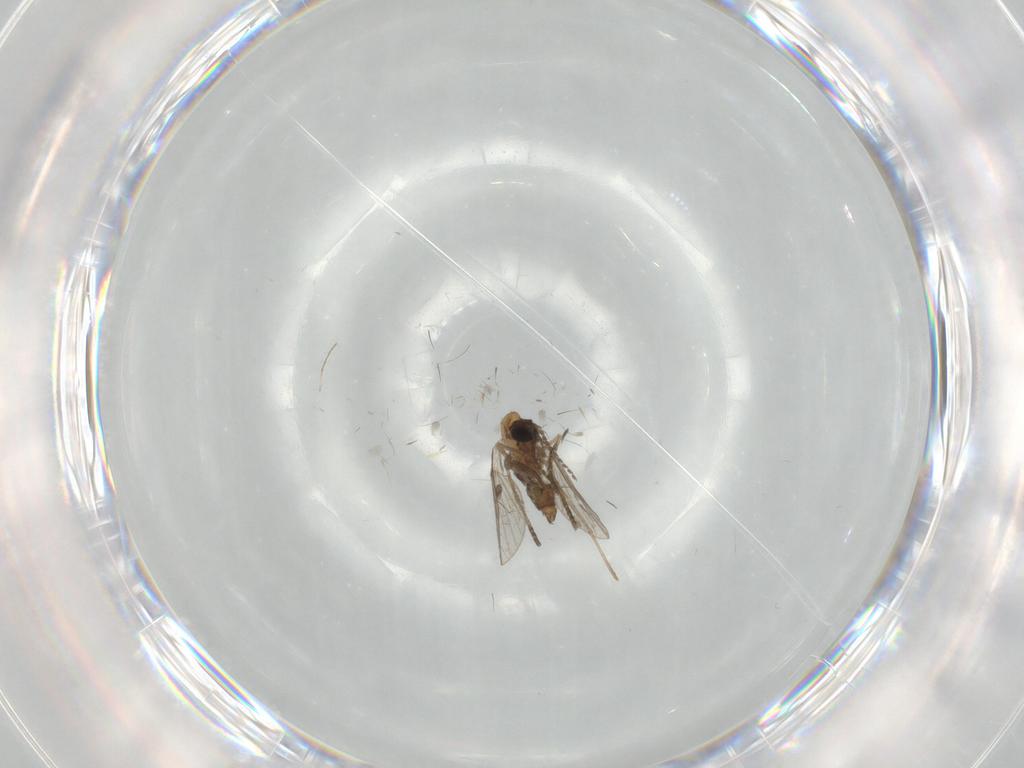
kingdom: Animalia
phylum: Arthropoda
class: Insecta
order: Diptera
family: Chironomidae
